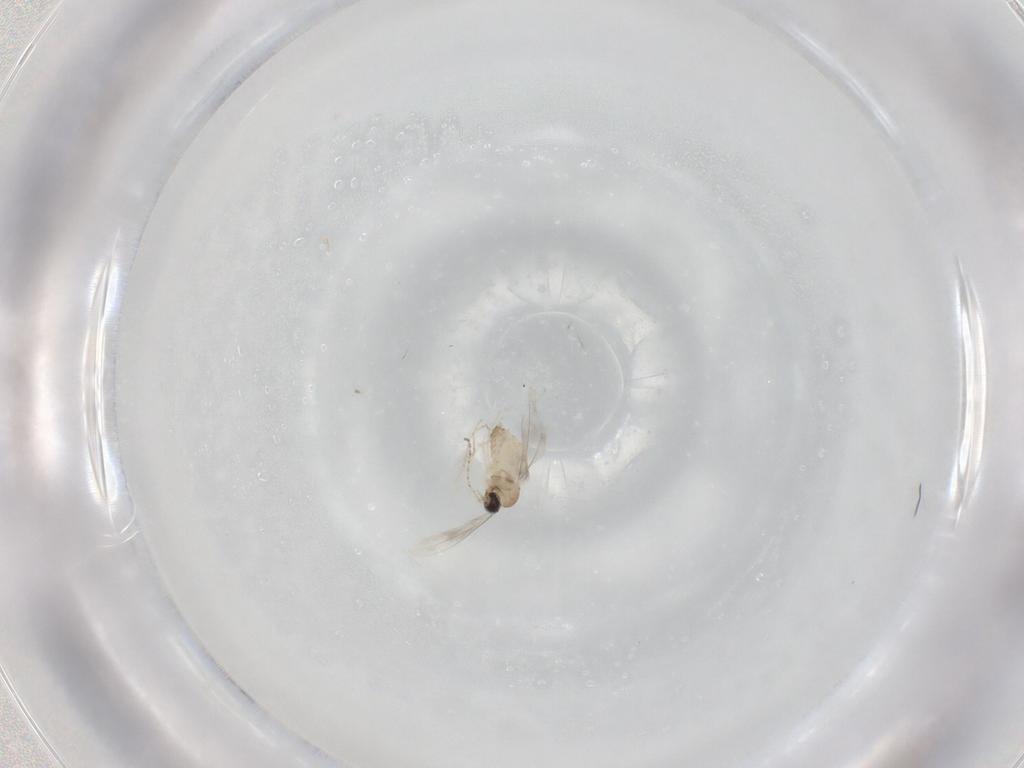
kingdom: Animalia
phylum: Arthropoda
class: Insecta
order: Diptera
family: Cecidomyiidae
